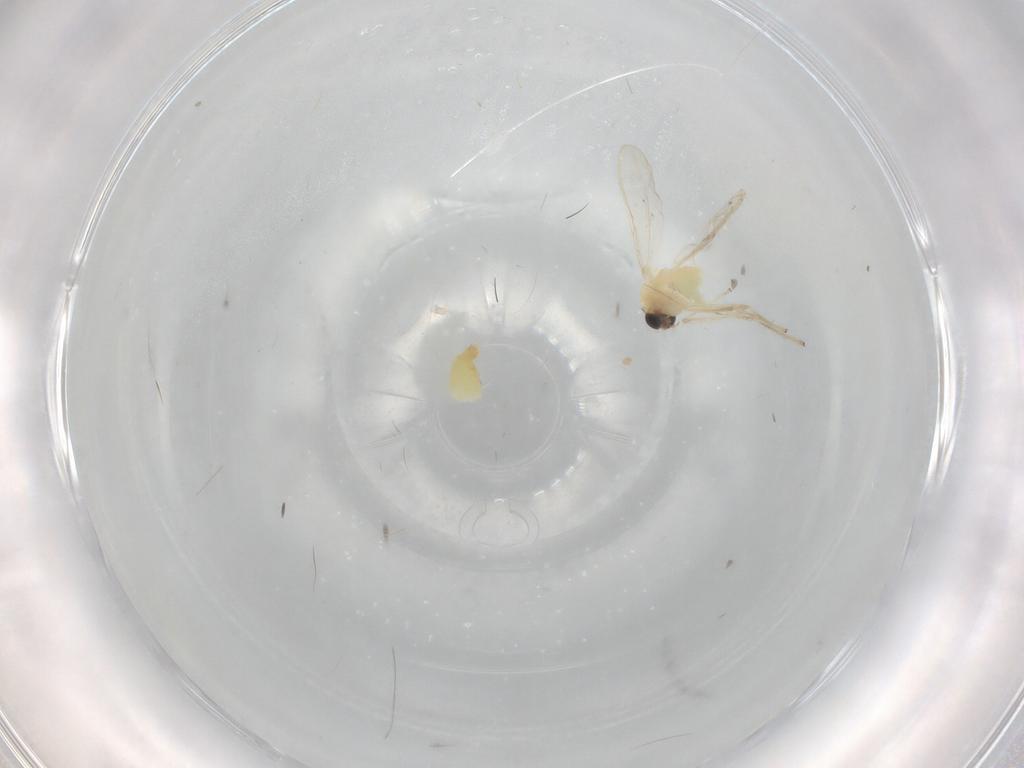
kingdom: Animalia
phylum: Arthropoda
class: Insecta
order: Diptera
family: Chironomidae
